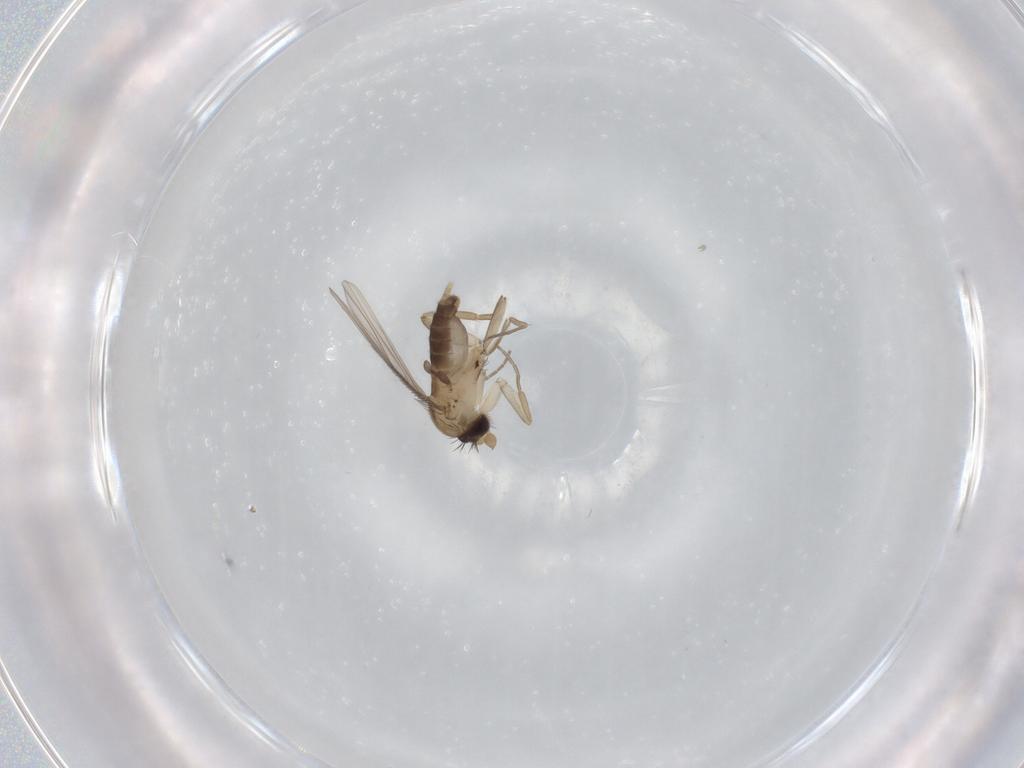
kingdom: Animalia
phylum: Arthropoda
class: Insecta
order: Diptera
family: Phoridae
